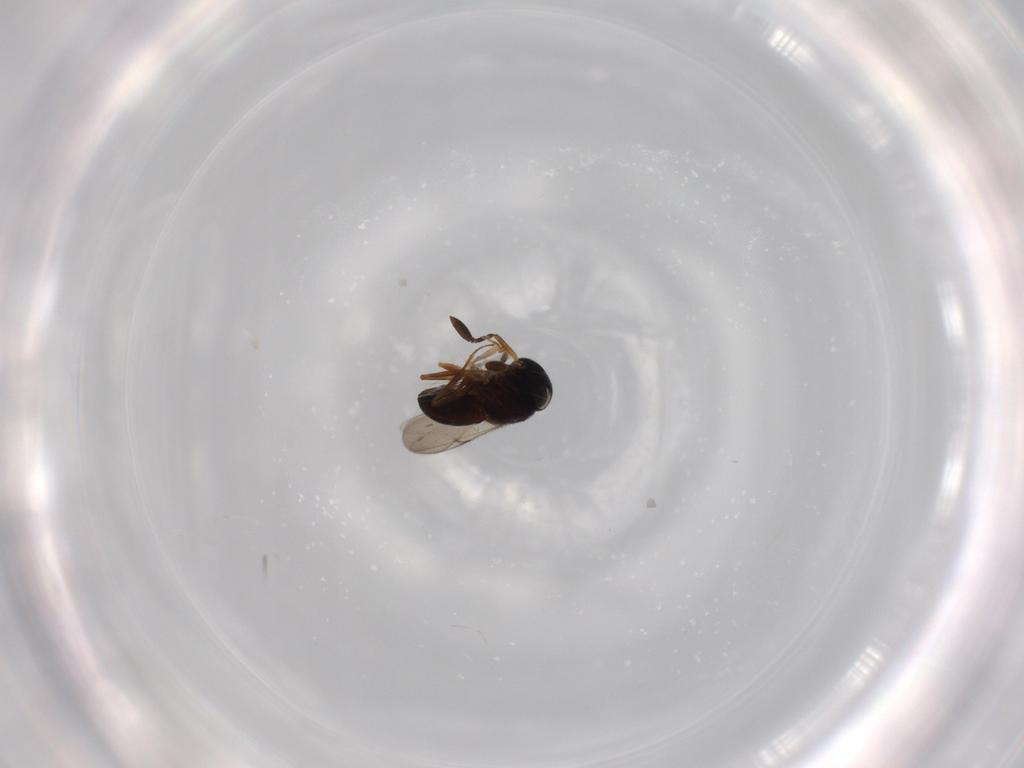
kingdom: Animalia
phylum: Arthropoda
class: Insecta
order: Coleoptera
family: Curculionidae
